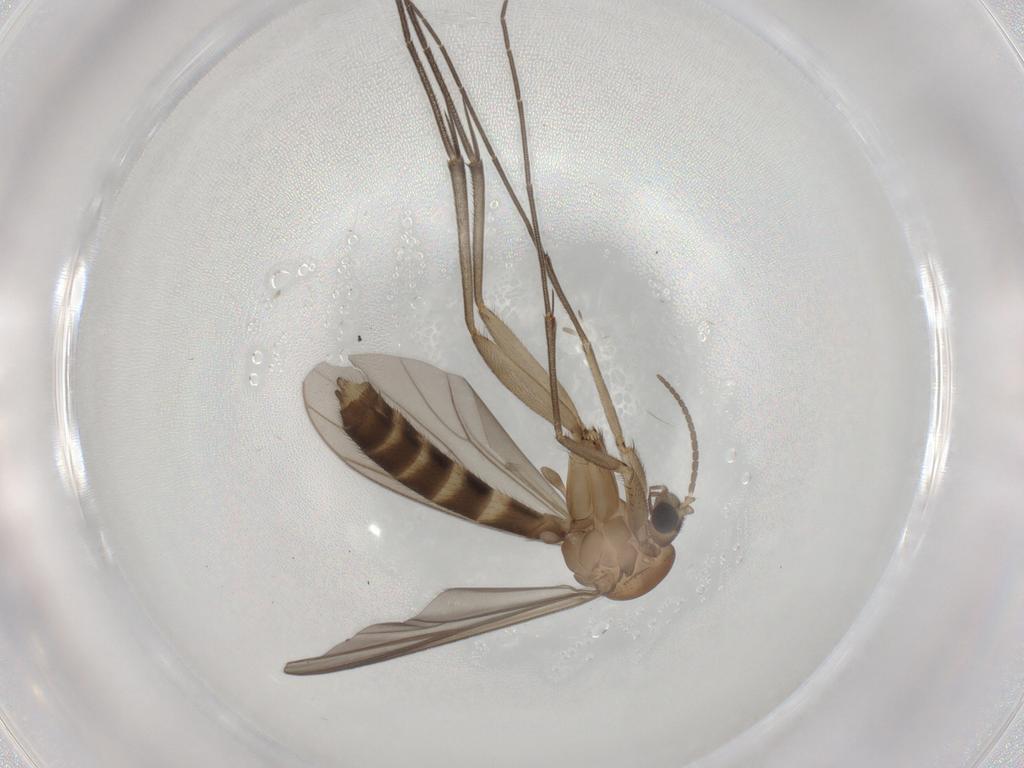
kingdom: Animalia
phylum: Arthropoda
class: Insecta
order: Diptera
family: Mycetophilidae
